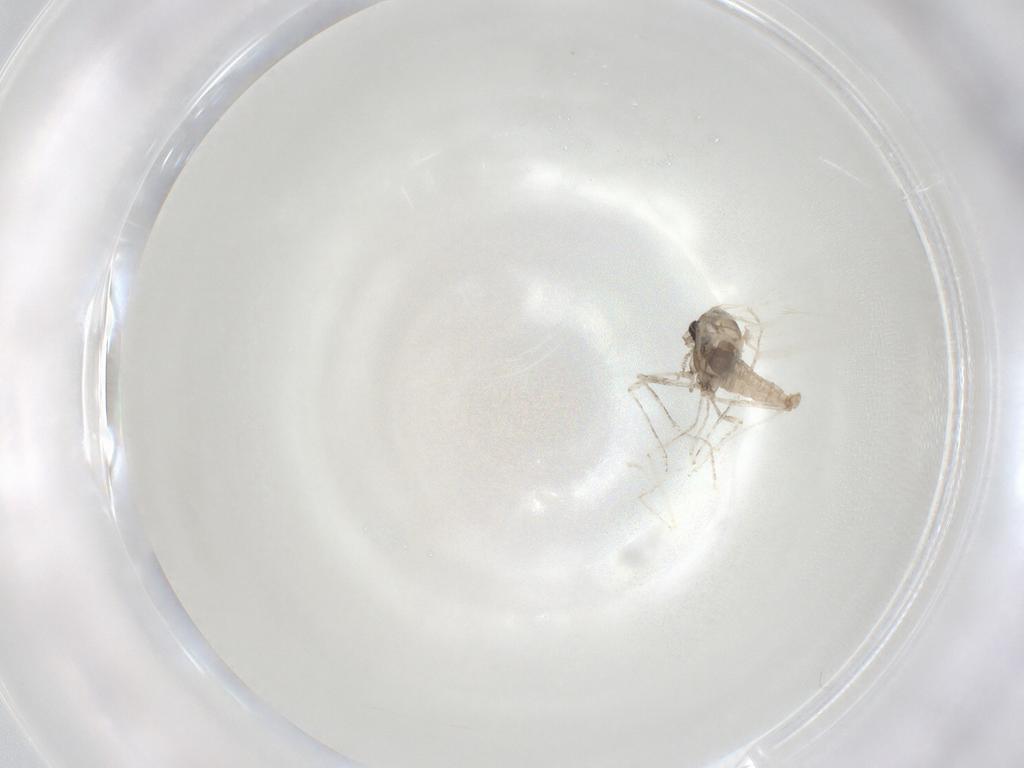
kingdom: Animalia
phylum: Arthropoda
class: Insecta
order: Diptera
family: Cecidomyiidae
